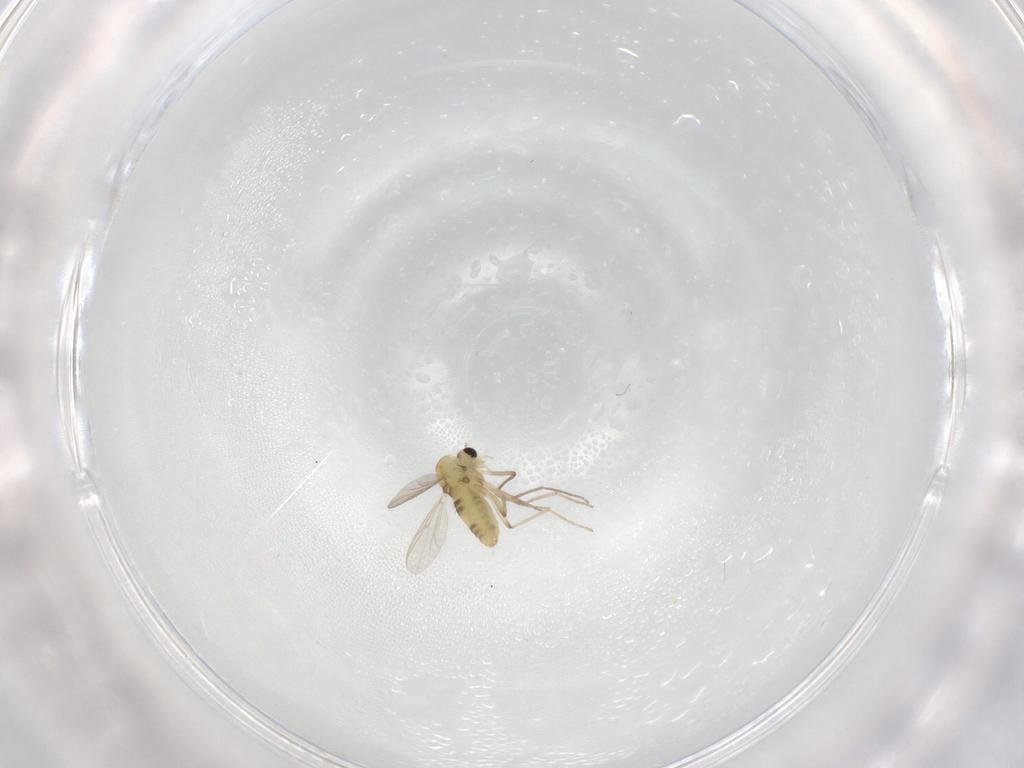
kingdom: Animalia
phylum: Arthropoda
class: Insecta
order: Diptera
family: Chironomidae
